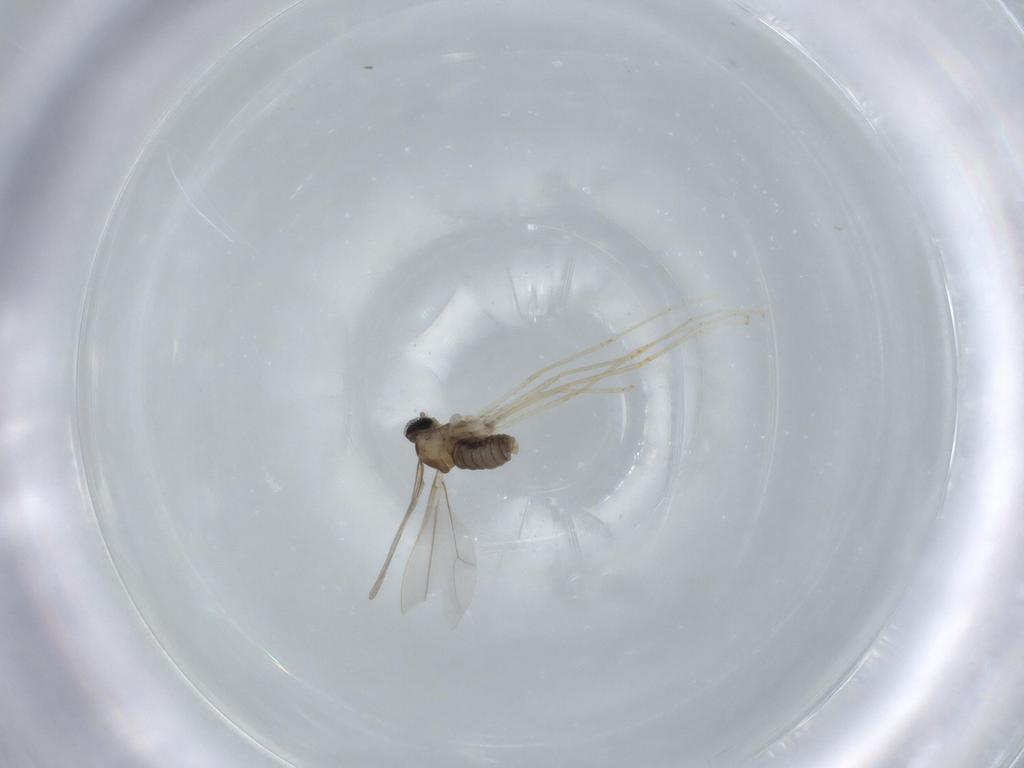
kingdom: Animalia
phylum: Arthropoda
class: Insecta
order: Diptera
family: Cecidomyiidae
